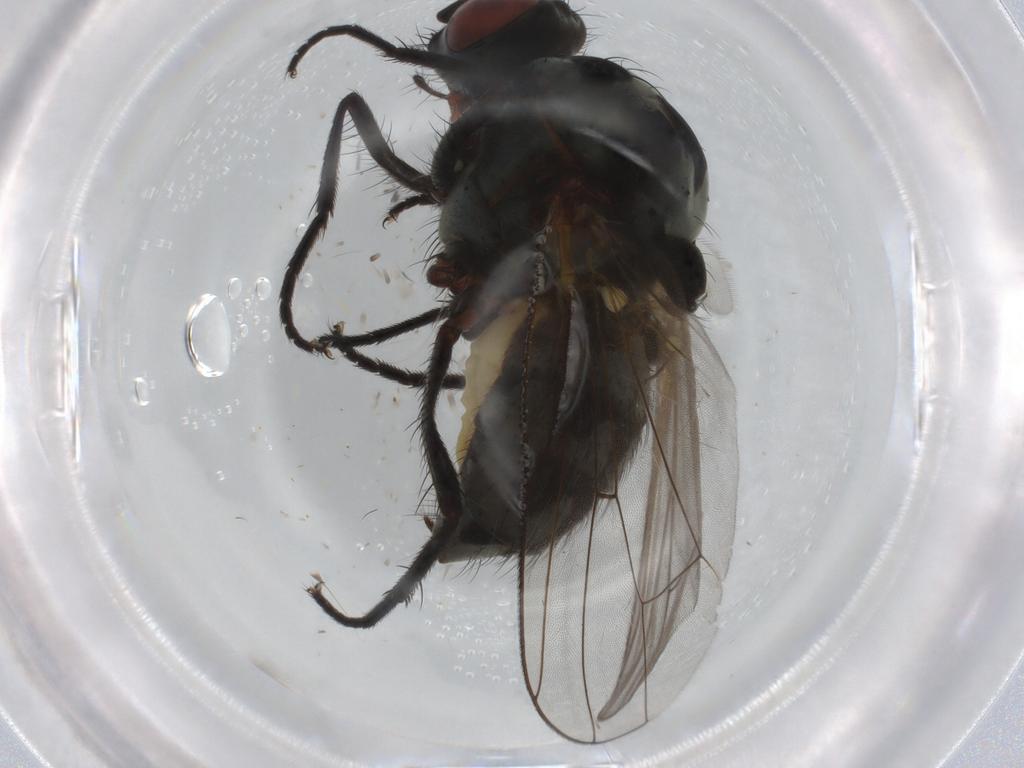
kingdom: Animalia
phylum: Arthropoda
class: Insecta
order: Diptera
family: Anthomyiidae
